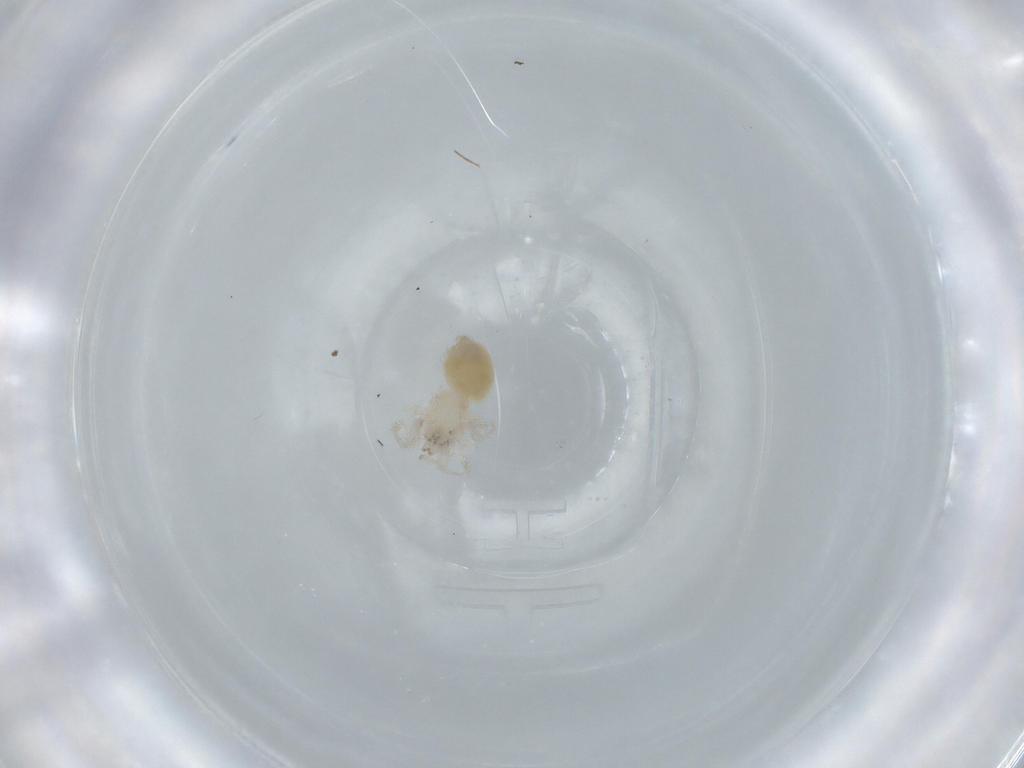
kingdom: Animalia
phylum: Arthropoda
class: Arachnida
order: Araneae
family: Oonopidae
